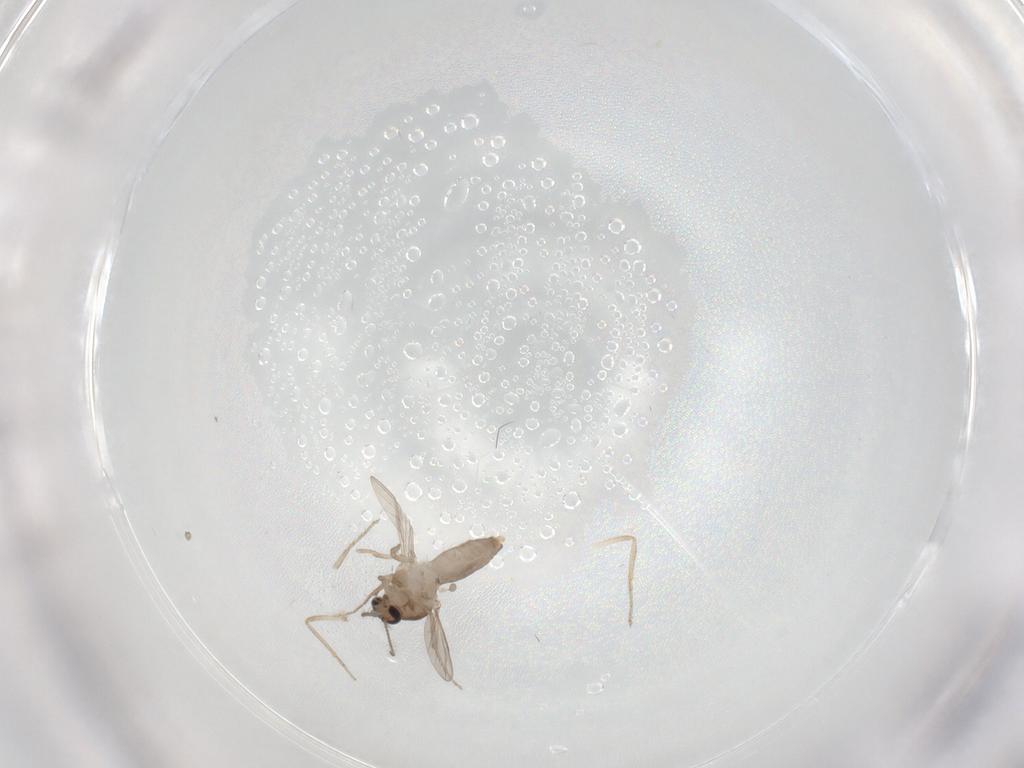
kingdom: Animalia
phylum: Arthropoda
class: Insecta
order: Diptera
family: Ceratopogonidae
